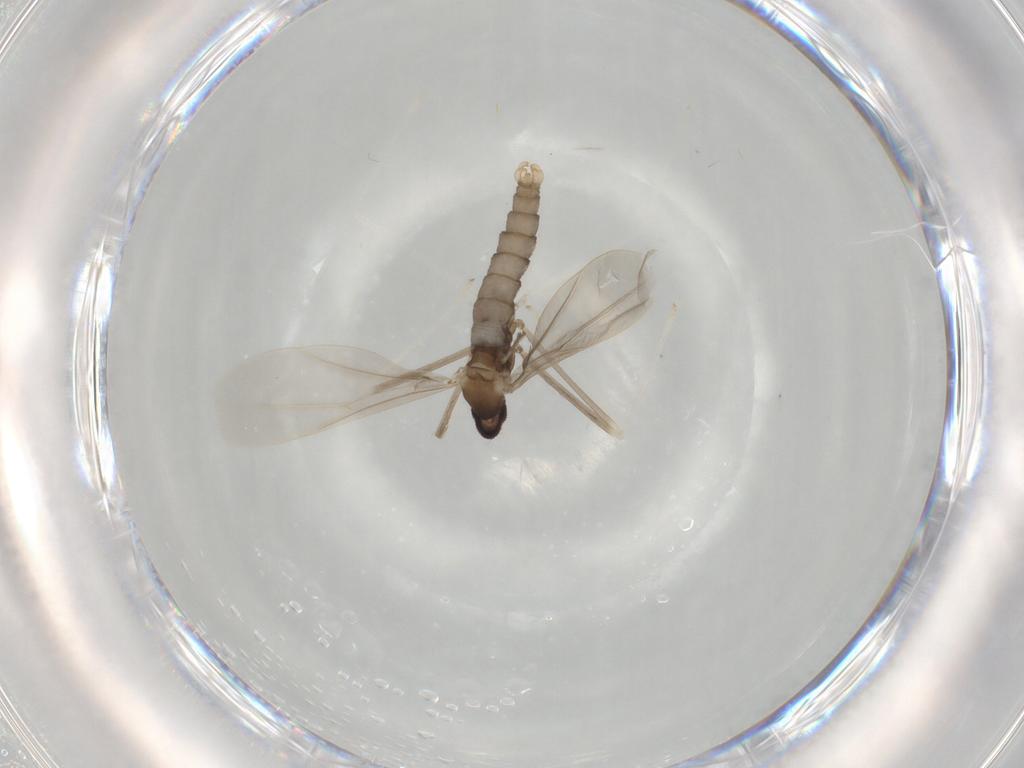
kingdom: Animalia
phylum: Arthropoda
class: Insecta
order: Diptera
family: Cecidomyiidae
